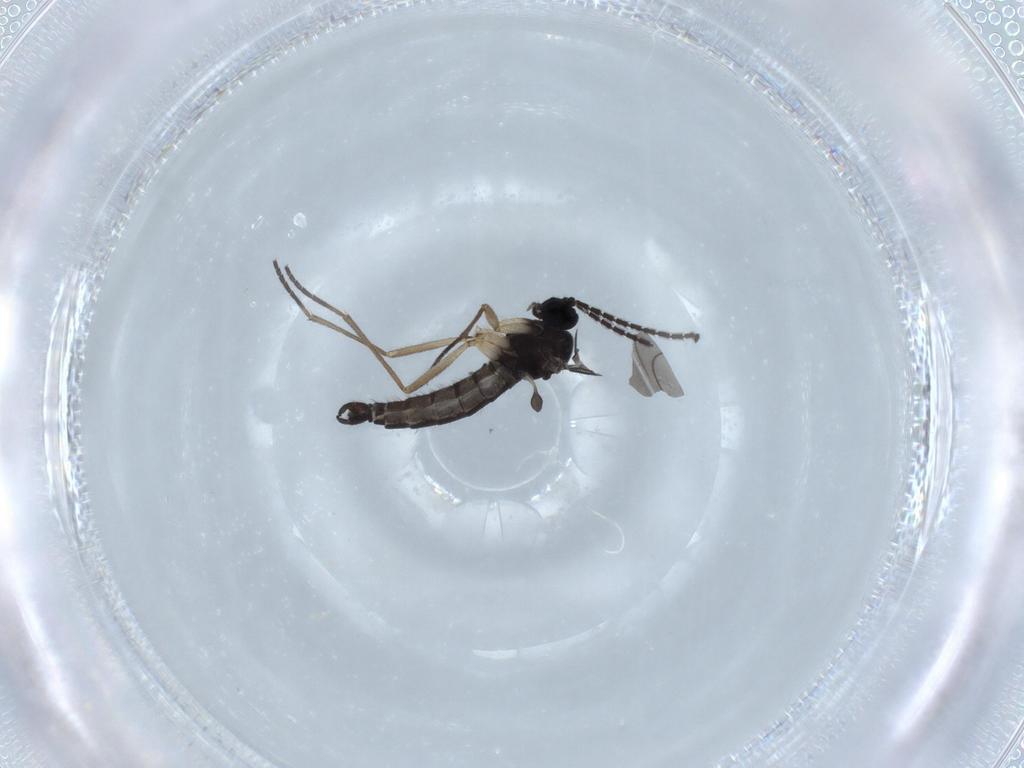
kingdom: Animalia
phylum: Arthropoda
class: Insecta
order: Diptera
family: Sciaridae
